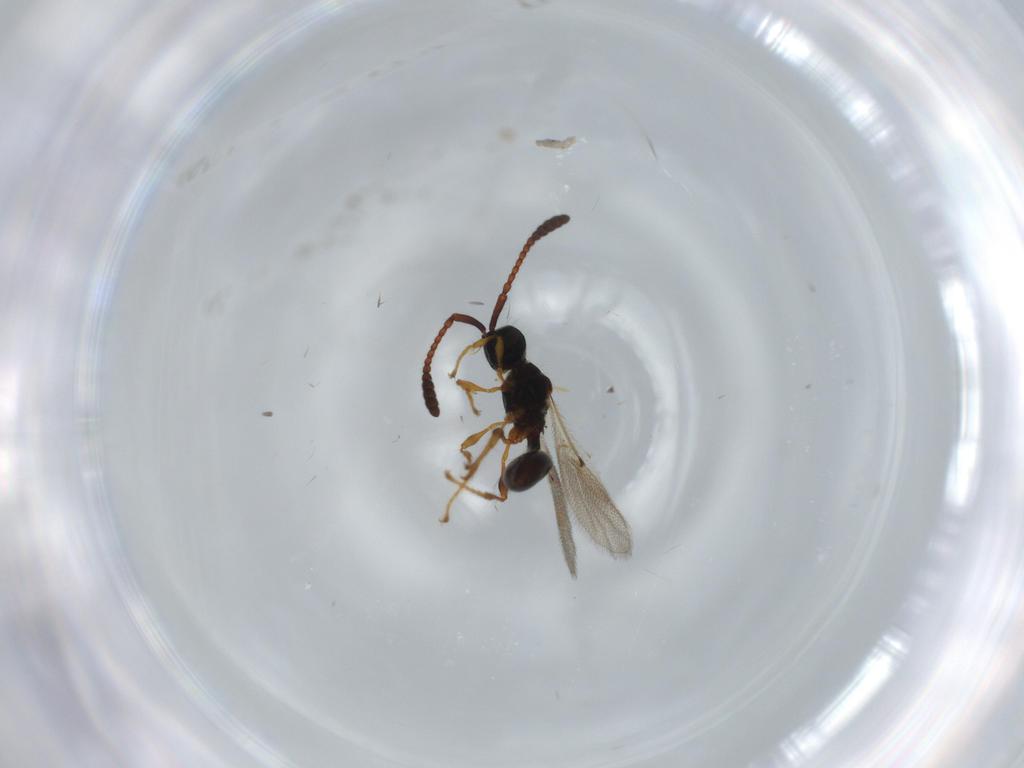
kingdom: Animalia
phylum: Arthropoda
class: Insecta
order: Hymenoptera
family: Diapriidae
